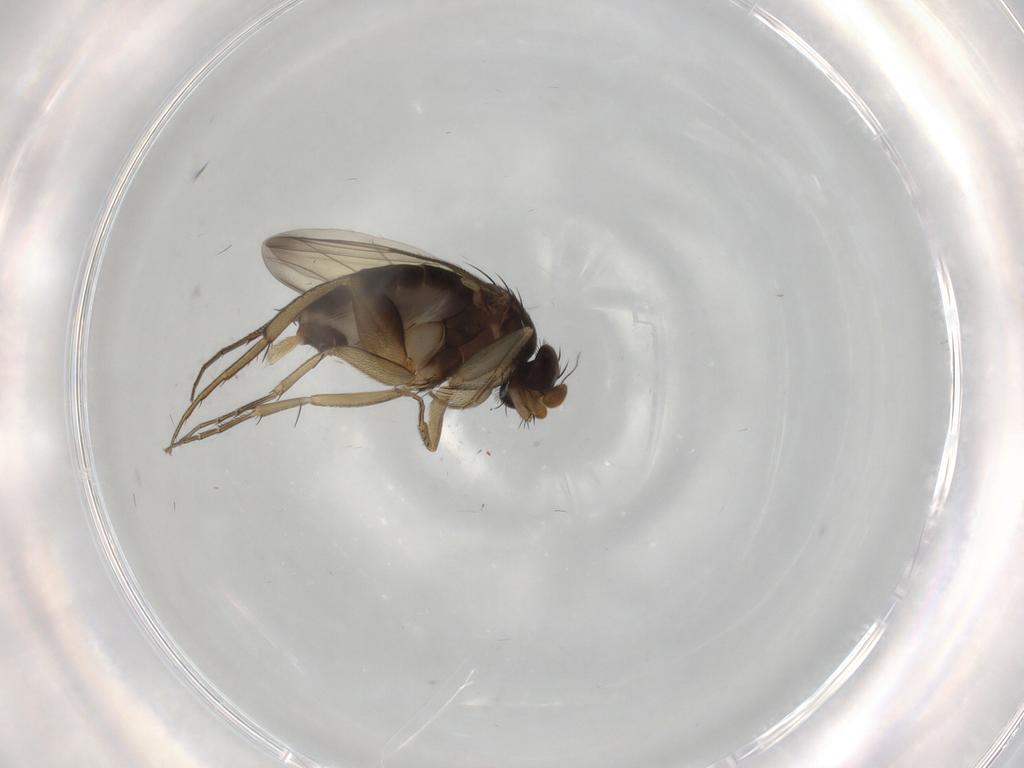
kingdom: Animalia
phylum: Arthropoda
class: Insecta
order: Diptera
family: Phoridae
